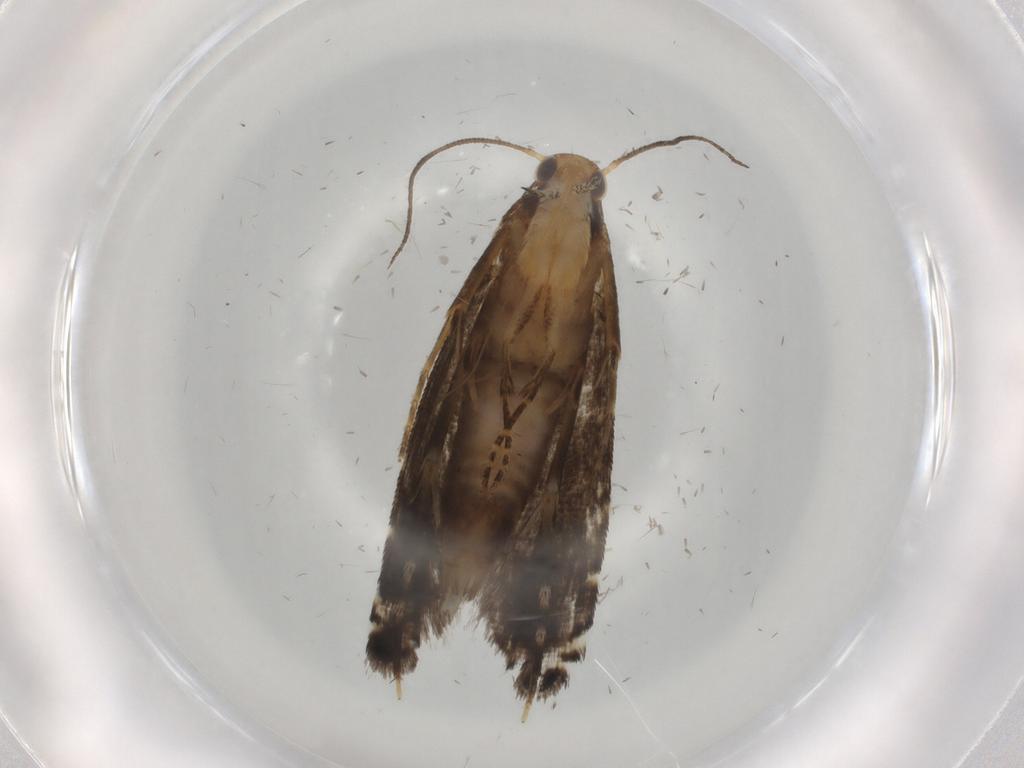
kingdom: Animalia
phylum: Arthropoda
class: Insecta
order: Lepidoptera
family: Glyphipterigidae
